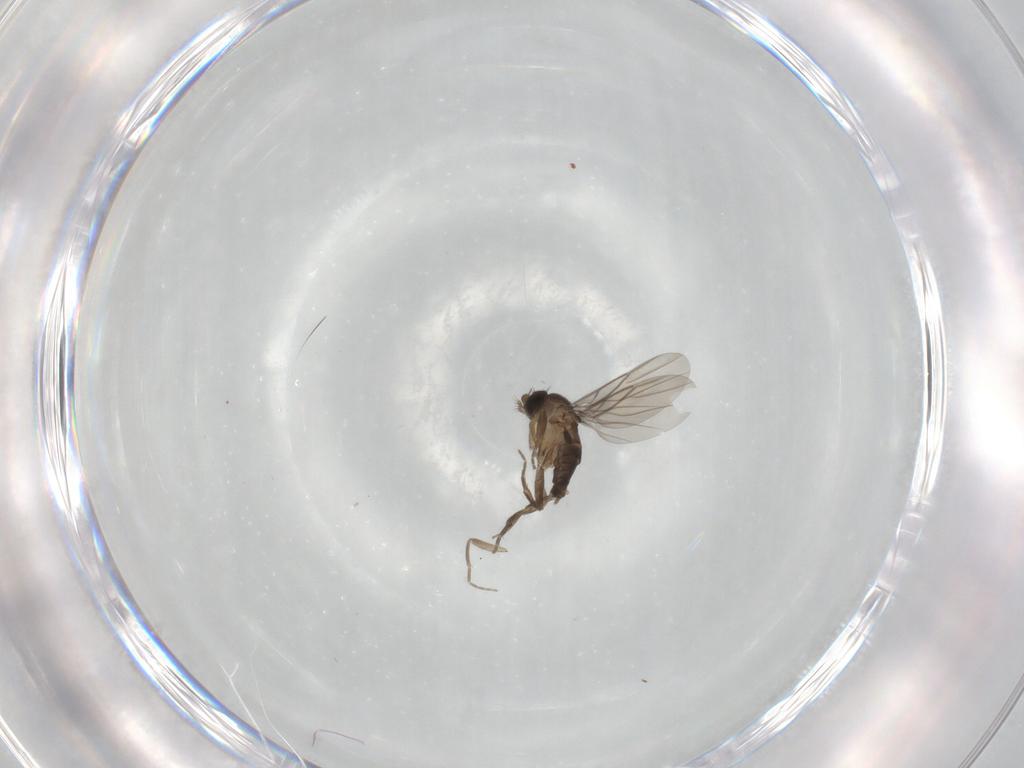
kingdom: Animalia
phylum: Arthropoda
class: Insecta
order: Diptera
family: Phoridae
